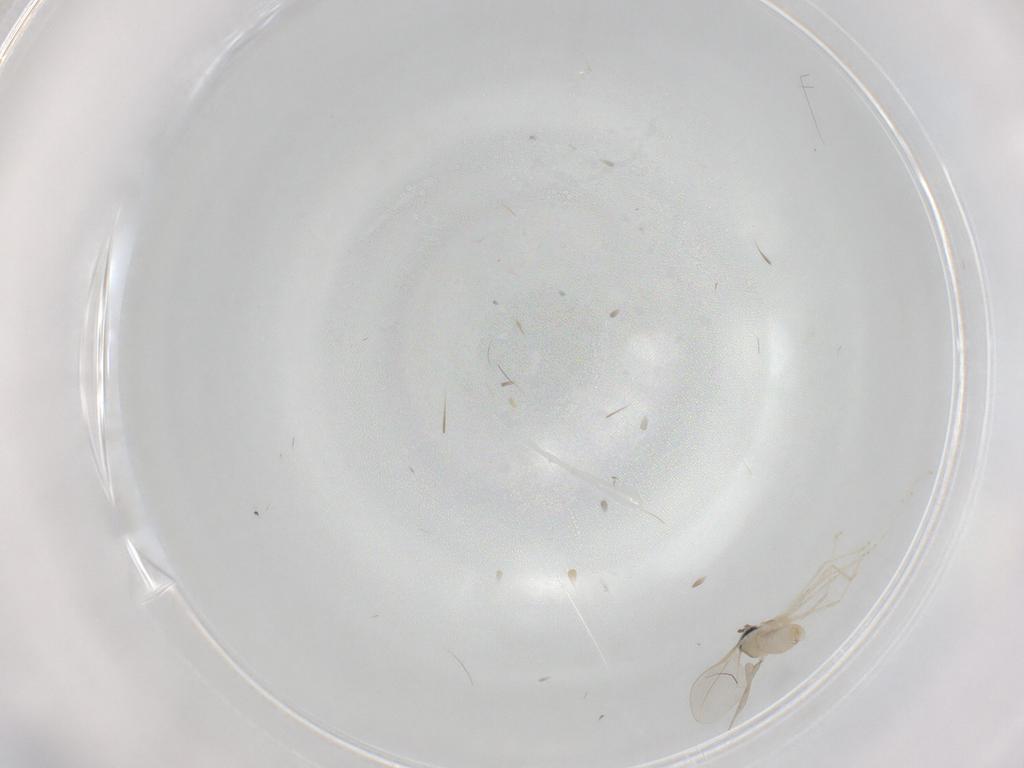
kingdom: Animalia
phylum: Arthropoda
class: Insecta
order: Diptera
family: Cecidomyiidae
